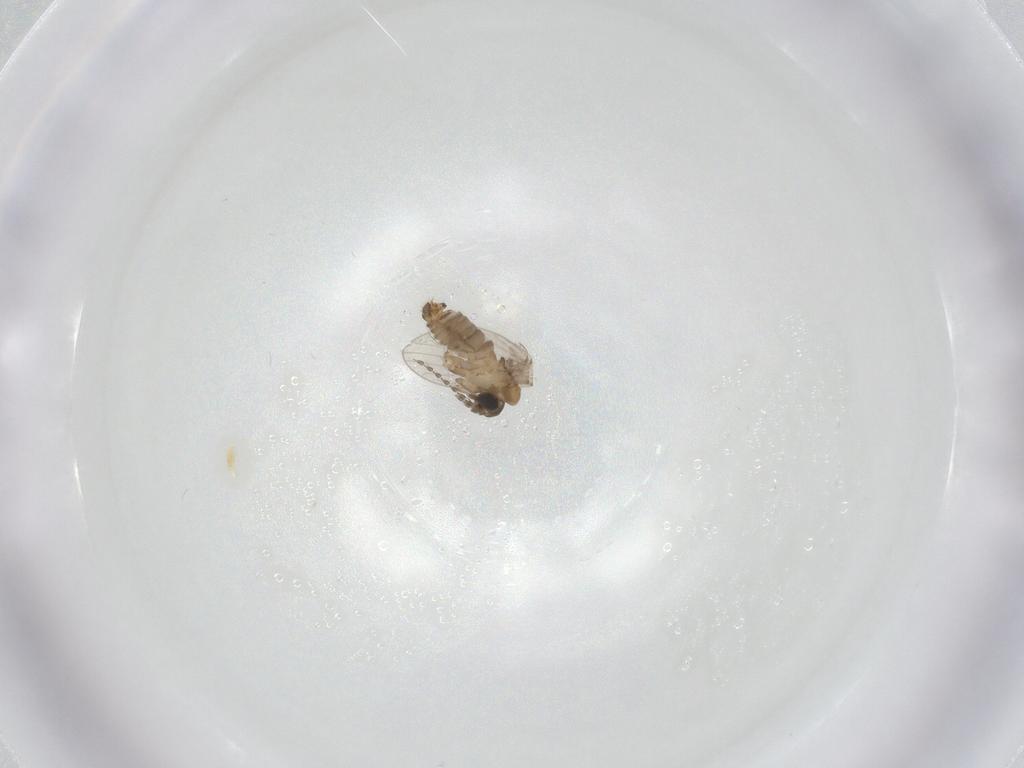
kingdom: Animalia
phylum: Arthropoda
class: Insecta
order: Diptera
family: Psychodidae
